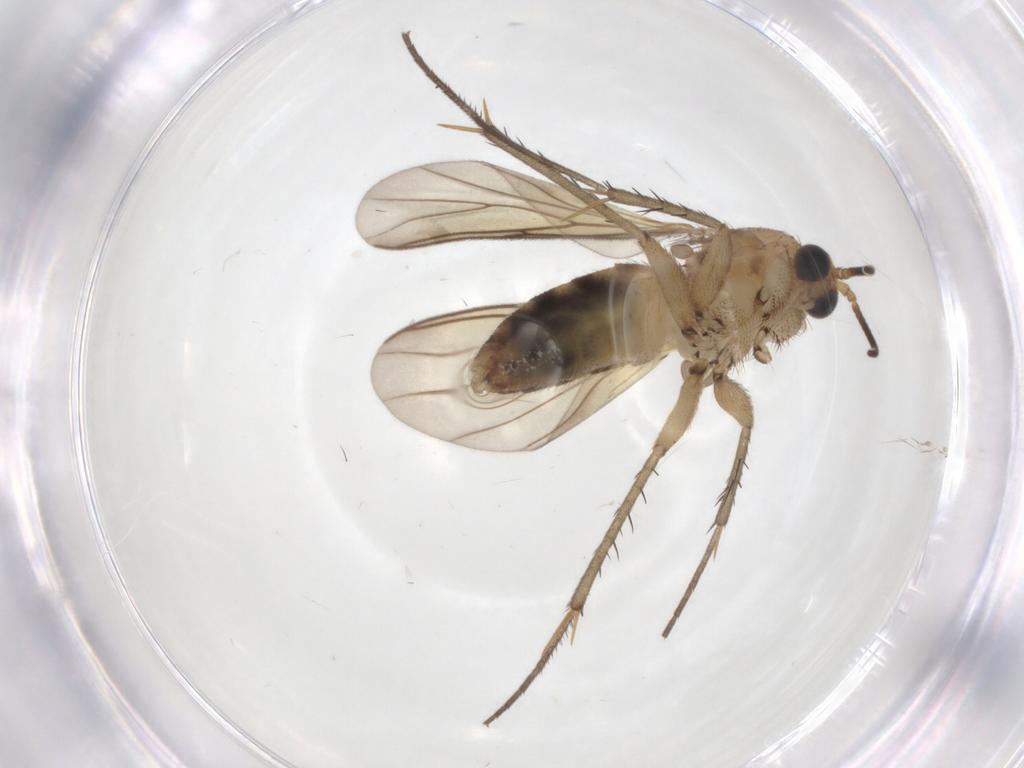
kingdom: Animalia
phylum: Arthropoda
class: Insecta
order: Diptera
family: Mycetophilidae
